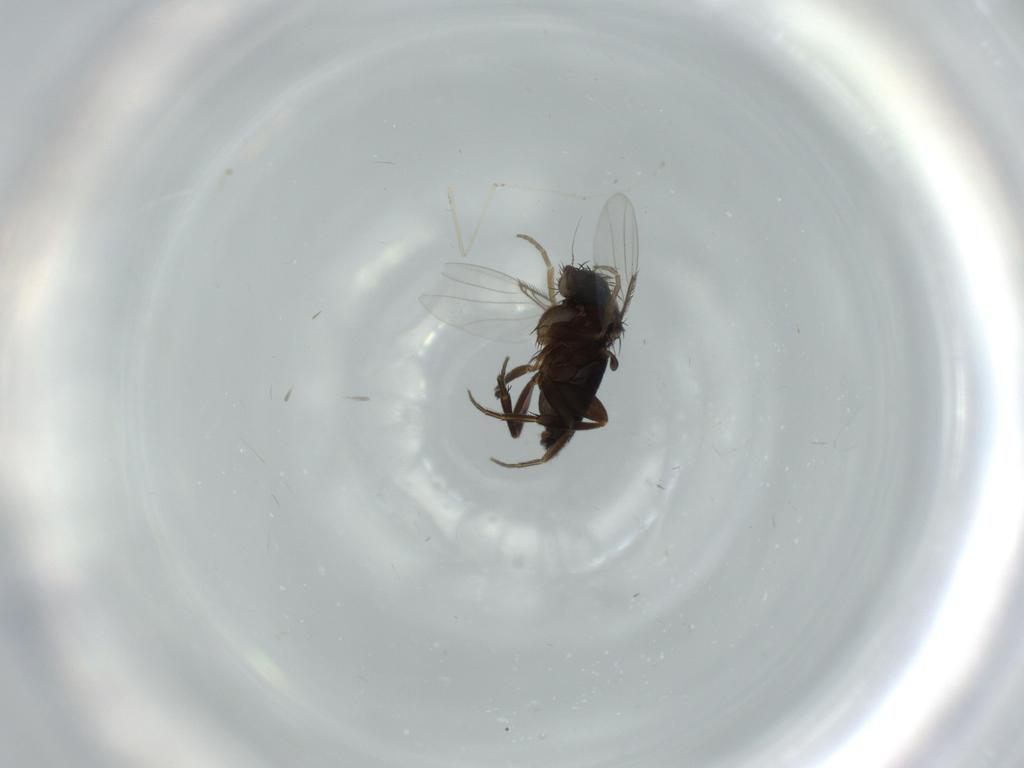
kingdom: Animalia
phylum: Arthropoda
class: Insecta
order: Diptera
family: Phoridae
